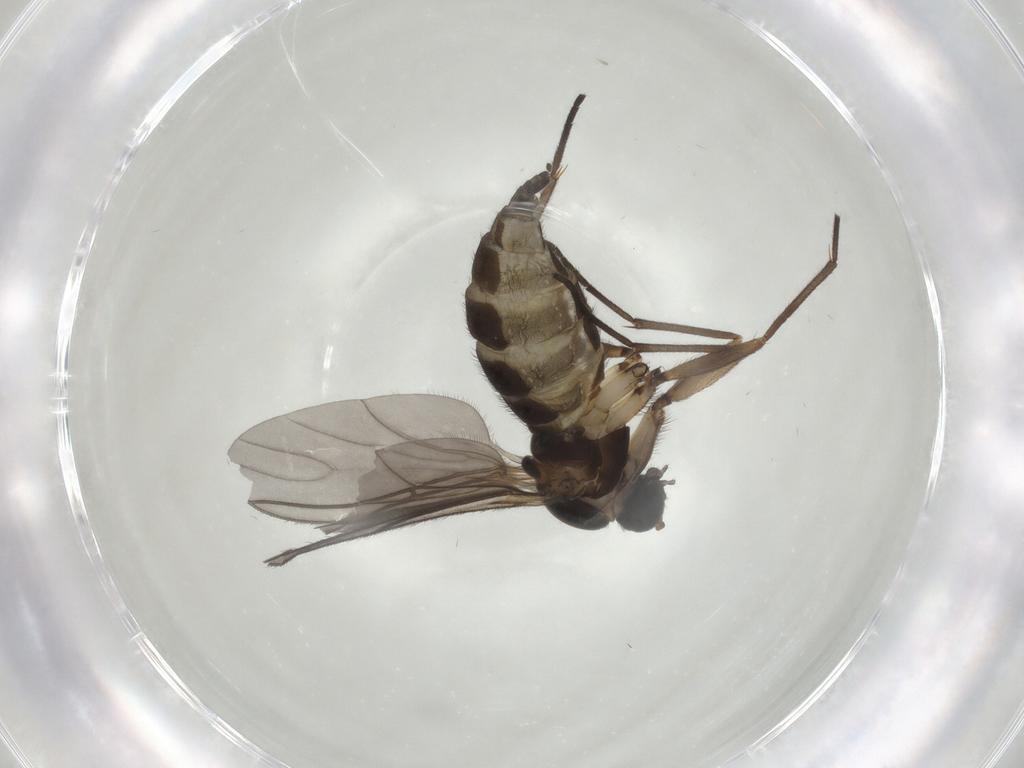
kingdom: Animalia
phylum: Arthropoda
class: Insecta
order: Diptera
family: Sciaridae
